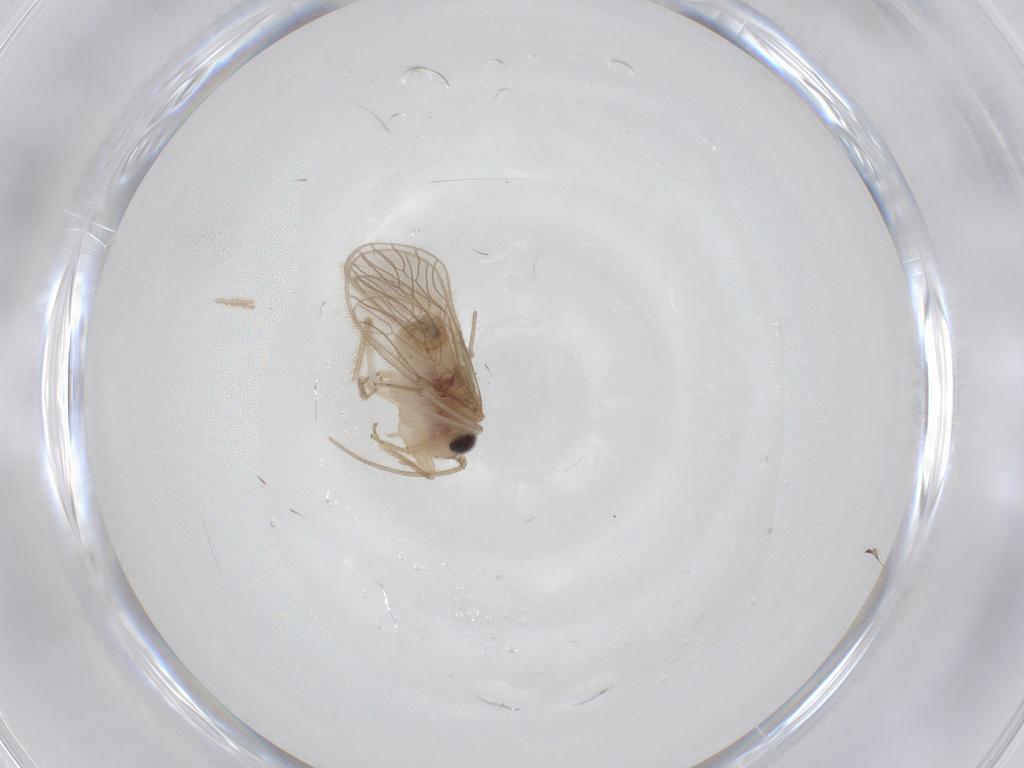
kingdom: Animalia
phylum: Arthropoda
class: Insecta
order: Psocodea
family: Cladiopsocidae
